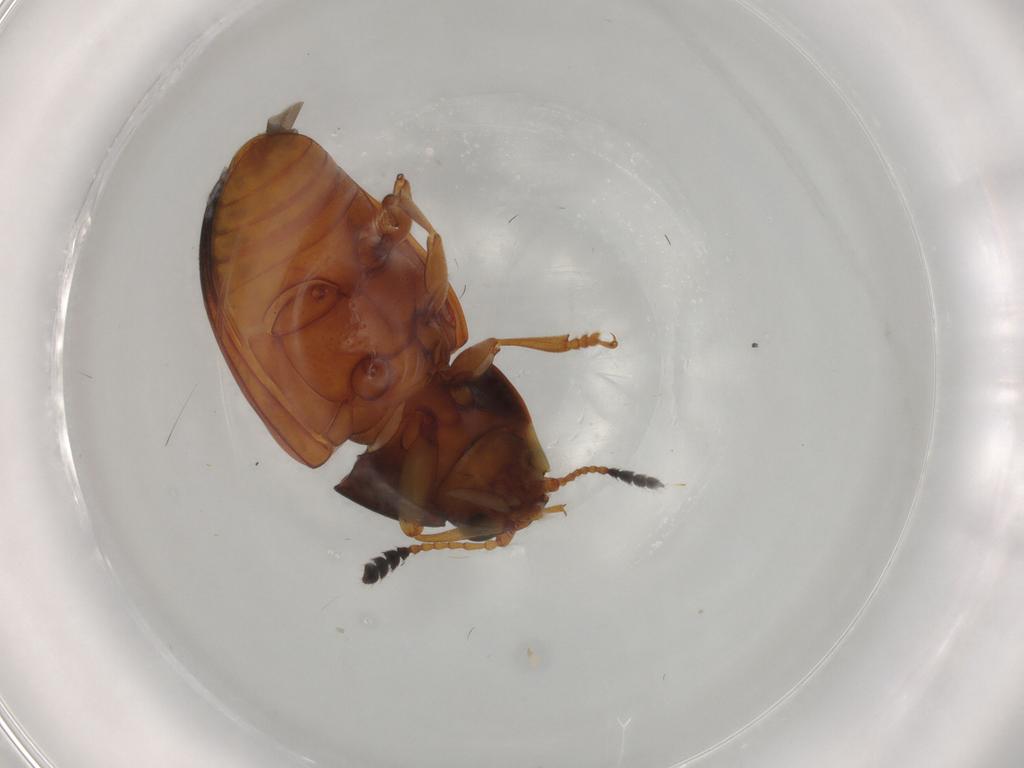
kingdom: Animalia
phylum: Arthropoda
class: Insecta
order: Coleoptera
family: Erotylidae
